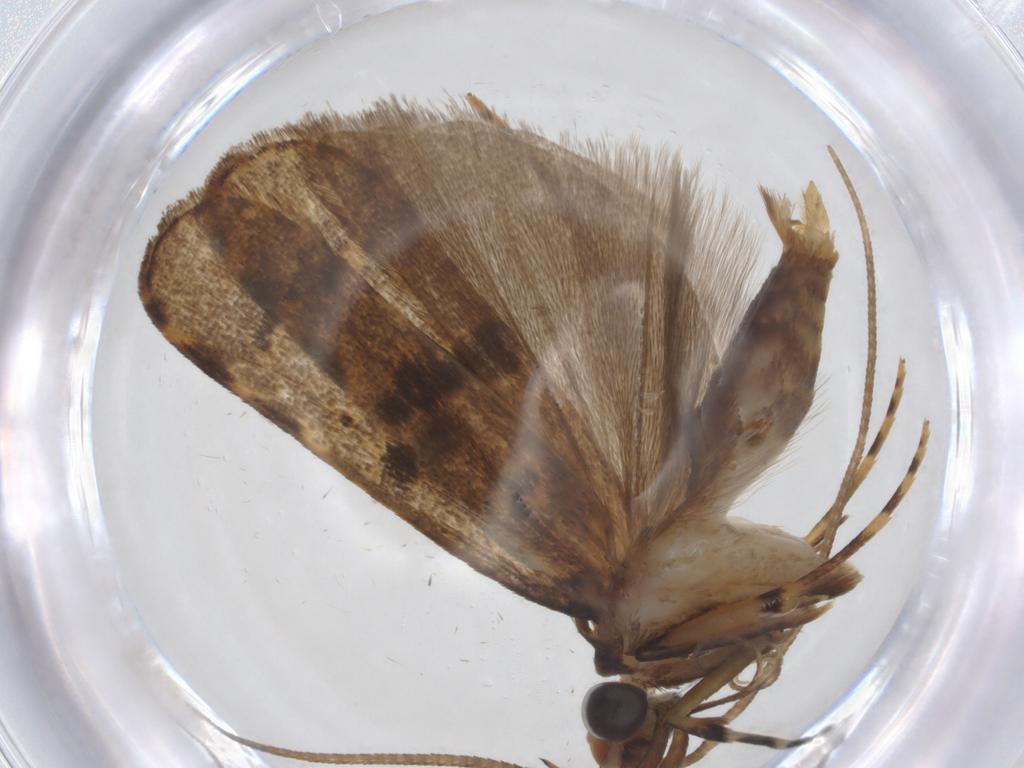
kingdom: Animalia
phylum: Arthropoda
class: Insecta
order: Lepidoptera
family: Autostichidae
